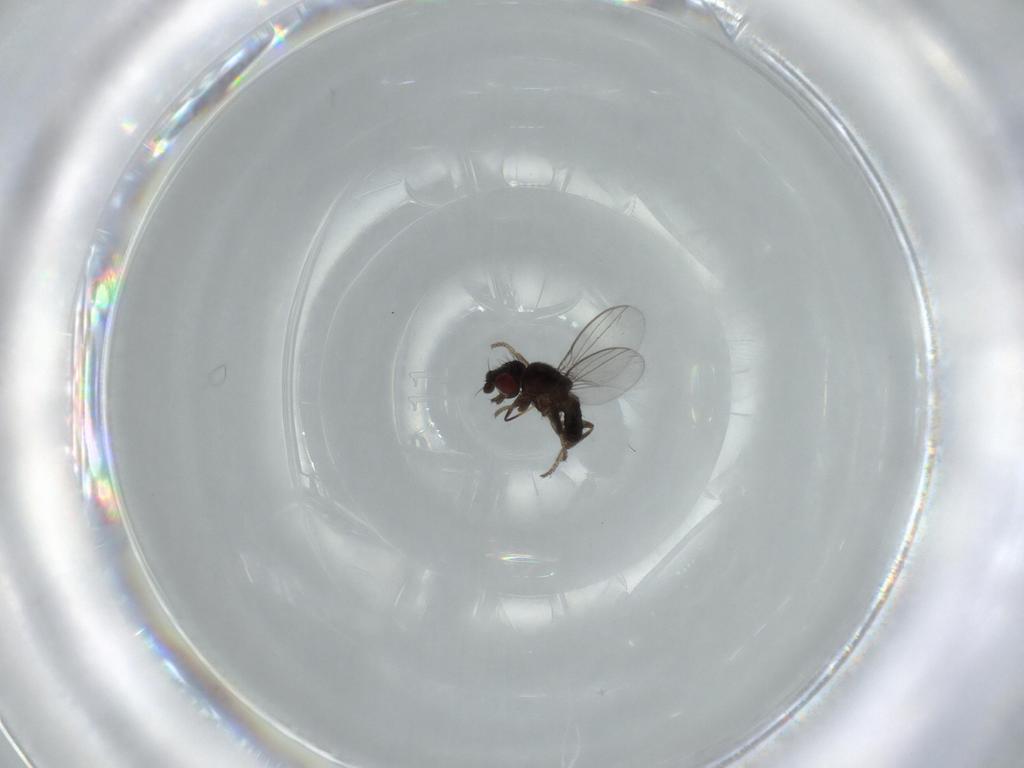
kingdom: Animalia
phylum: Arthropoda
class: Insecta
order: Diptera
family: Milichiidae
